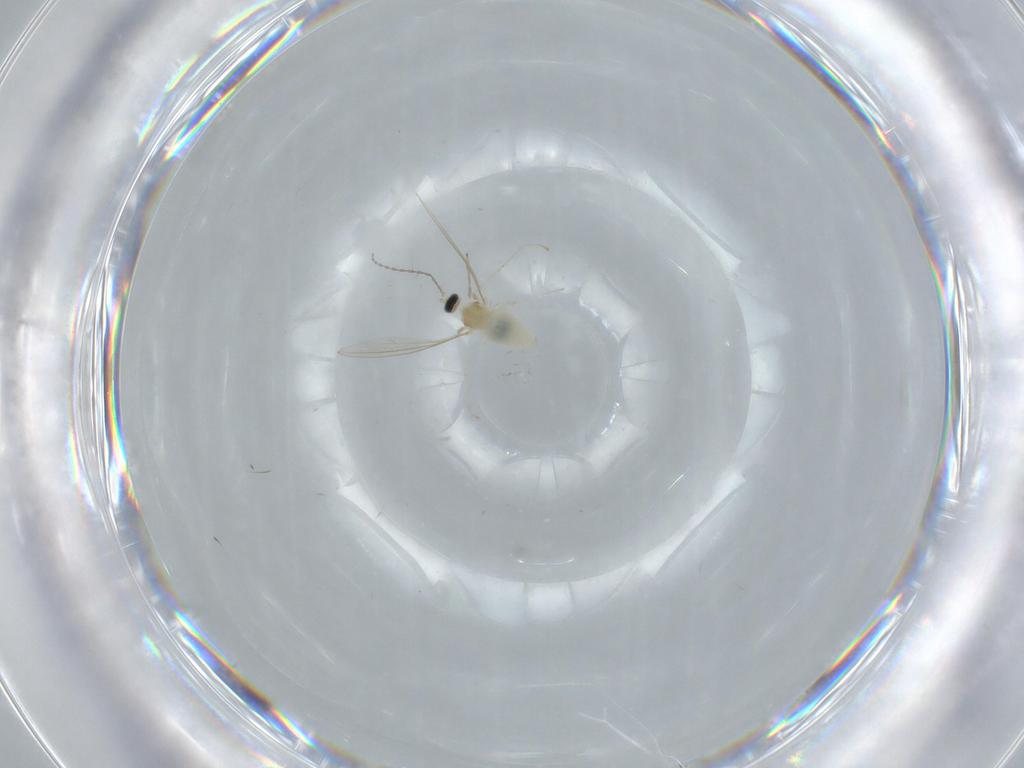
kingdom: Animalia
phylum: Arthropoda
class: Insecta
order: Diptera
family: Cecidomyiidae
